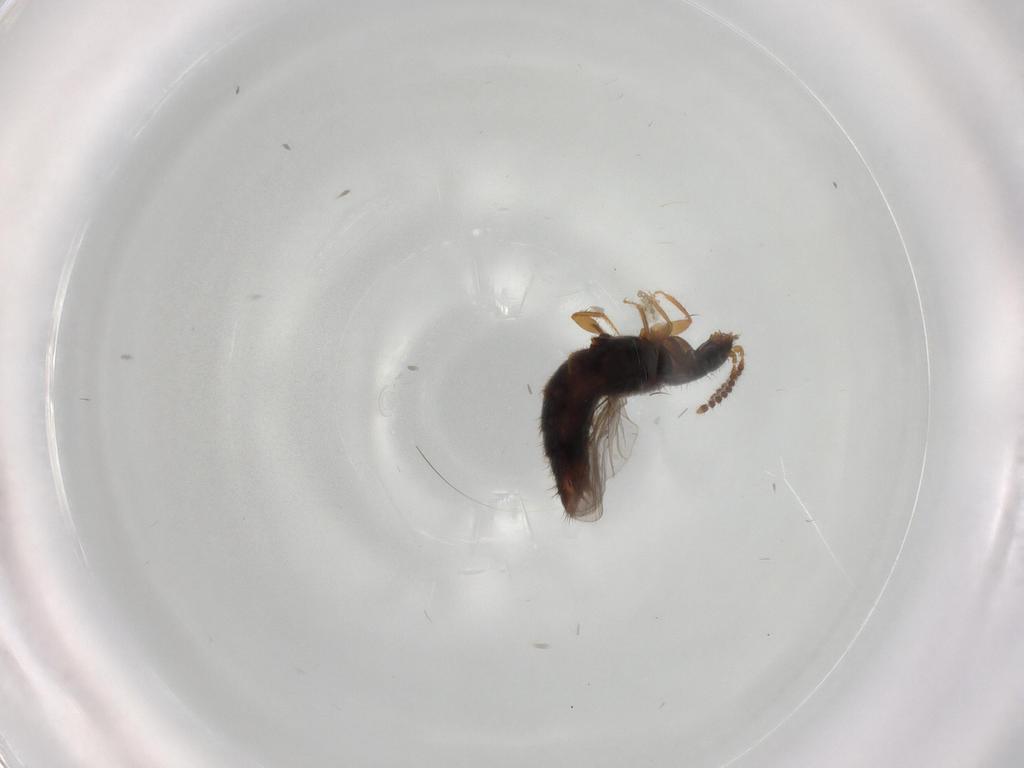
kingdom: Animalia
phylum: Arthropoda
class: Insecta
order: Coleoptera
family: Staphylinidae
